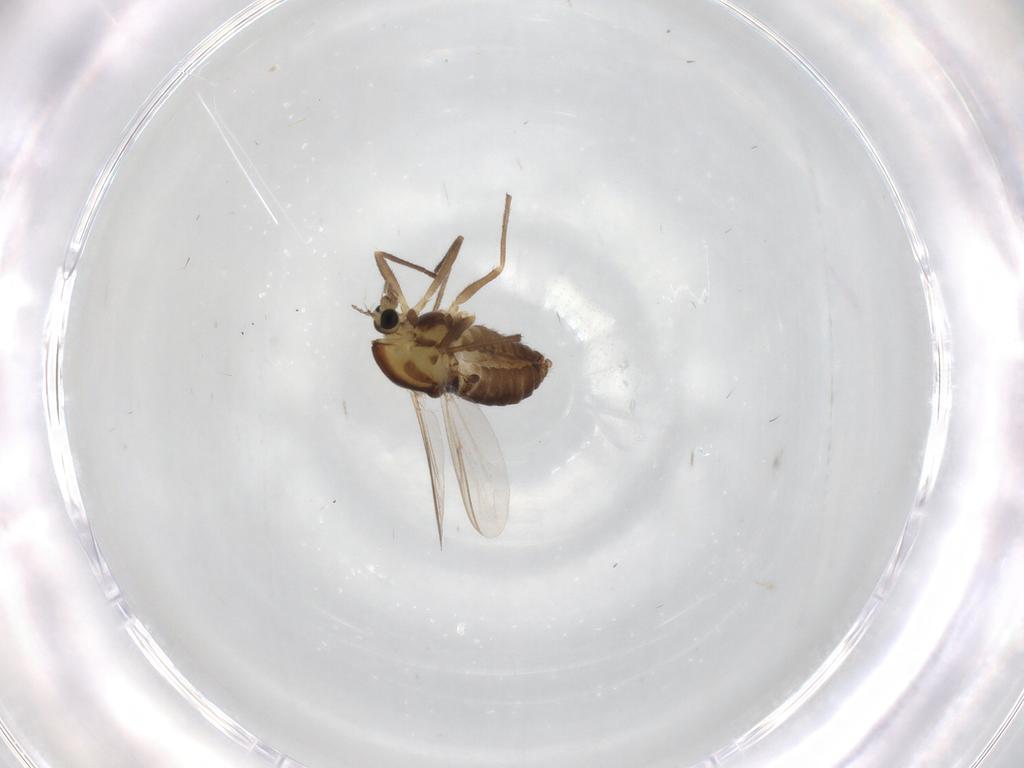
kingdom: Animalia
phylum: Arthropoda
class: Insecta
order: Diptera
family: Chironomidae
